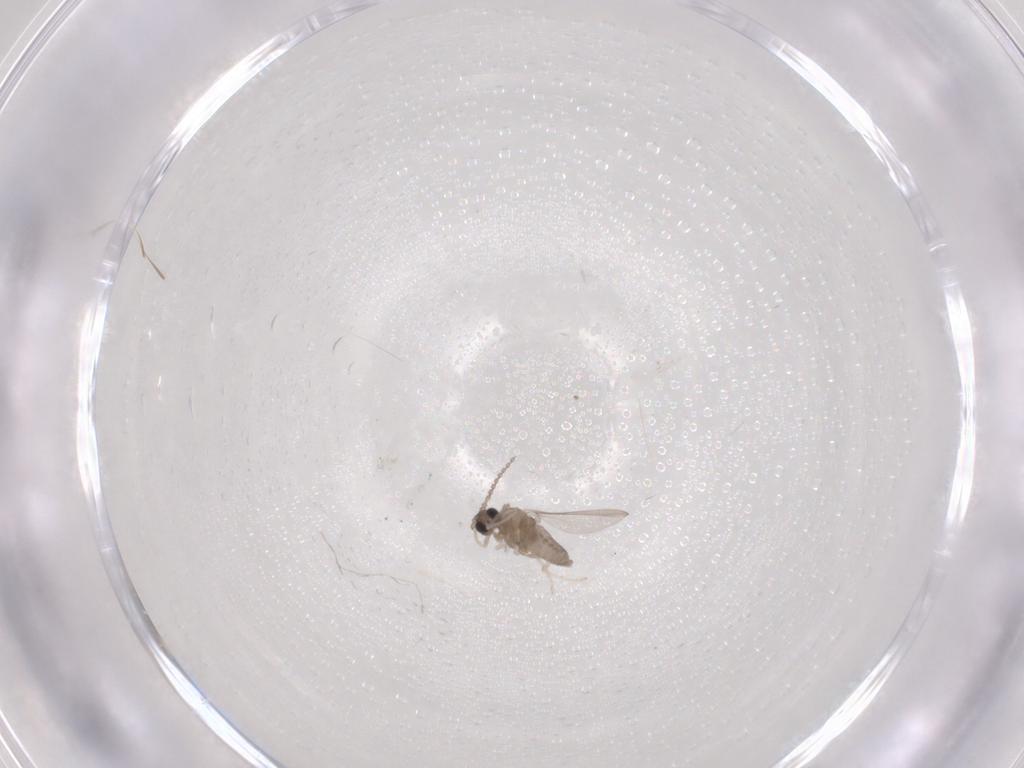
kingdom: Animalia
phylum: Arthropoda
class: Insecta
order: Diptera
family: Cecidomyiidae
